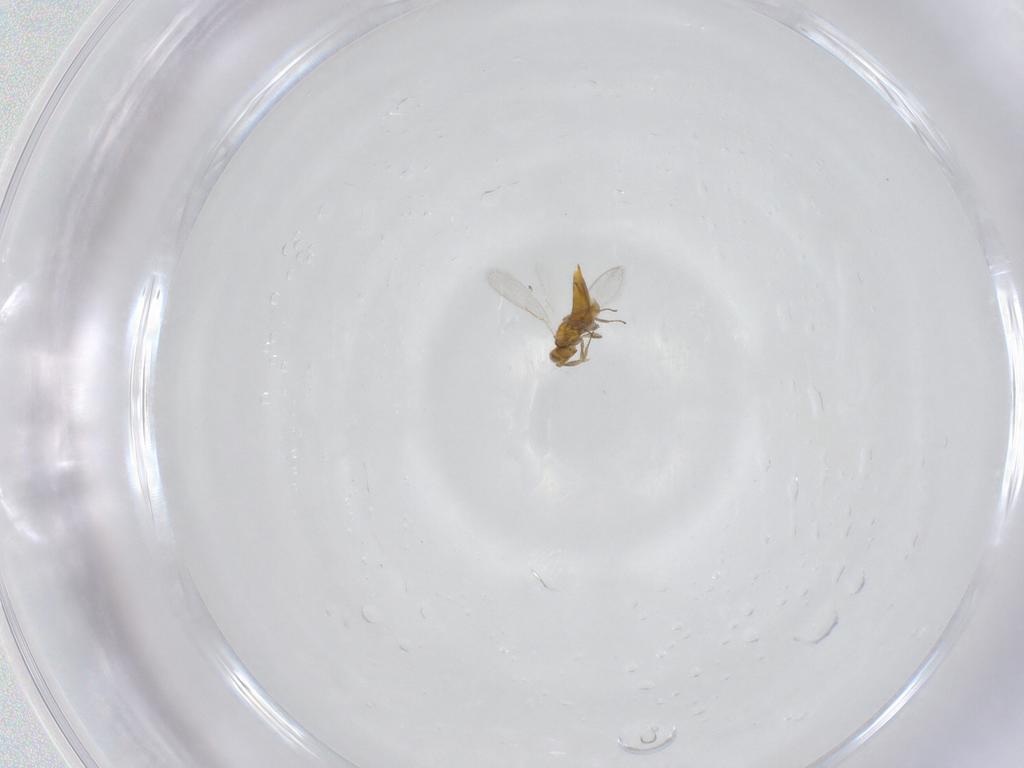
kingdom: Animalia
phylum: Arthropoda
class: Insecta
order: Hymenoptera
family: Aphelinidae
